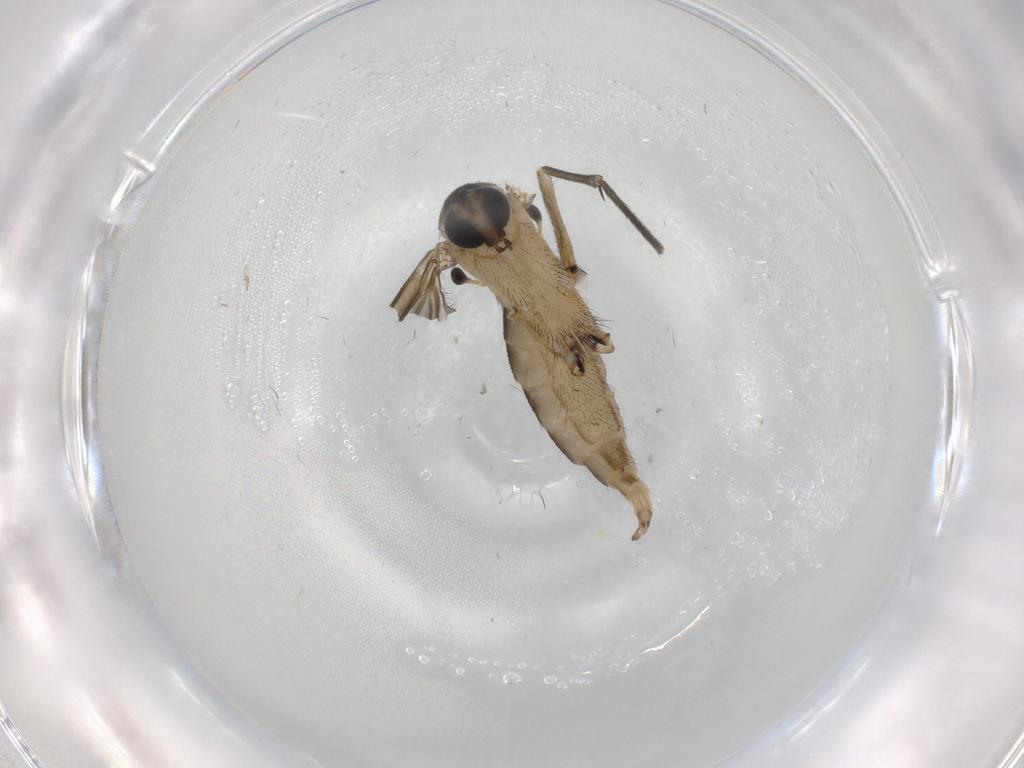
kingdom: Animalia
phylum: Arthropoda
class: Insecta
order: Diptera
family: Sciaridae
